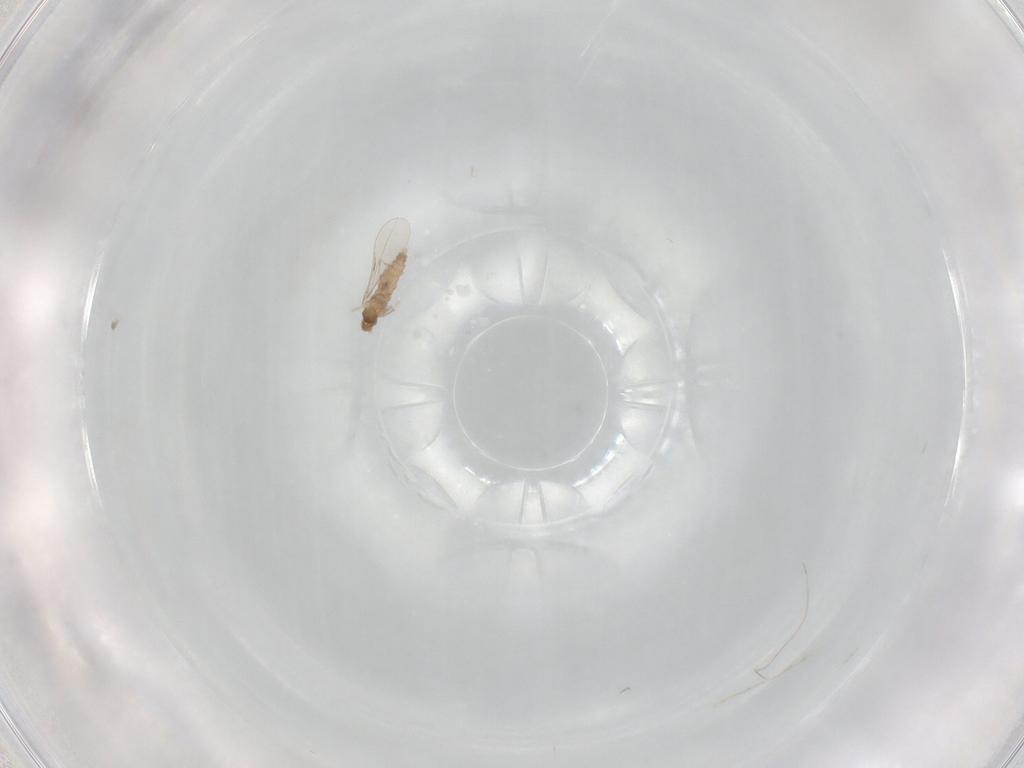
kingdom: Animalia
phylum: Arthropoda
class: Insecta
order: Diptera
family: Cecidomyiidae
